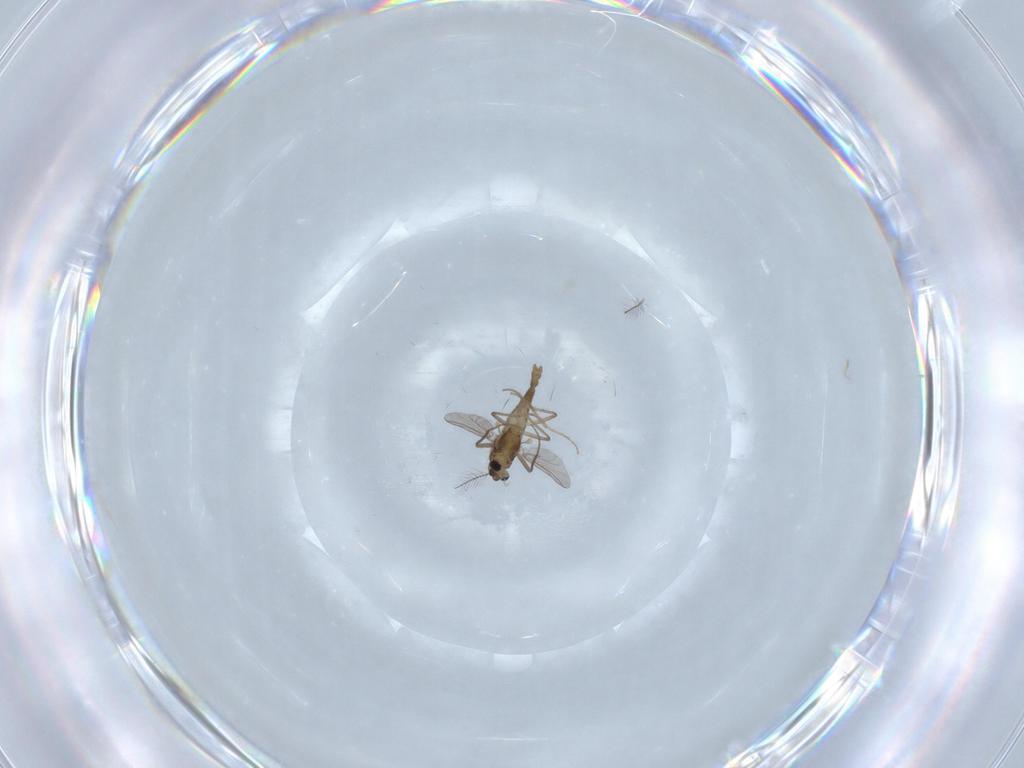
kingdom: Animalia
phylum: Arthropoda
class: Insecta
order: Diptera
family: Chironomidae
